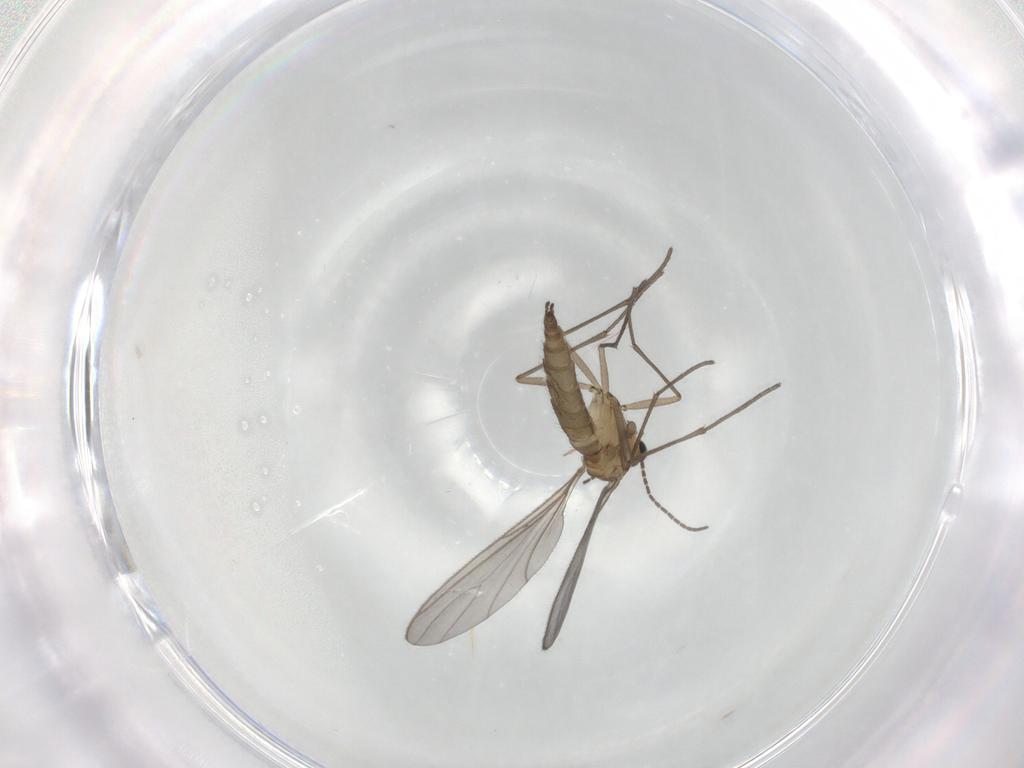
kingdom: Animalia
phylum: Arthropoda
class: Insecta
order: Diptera
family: Sciaridae
